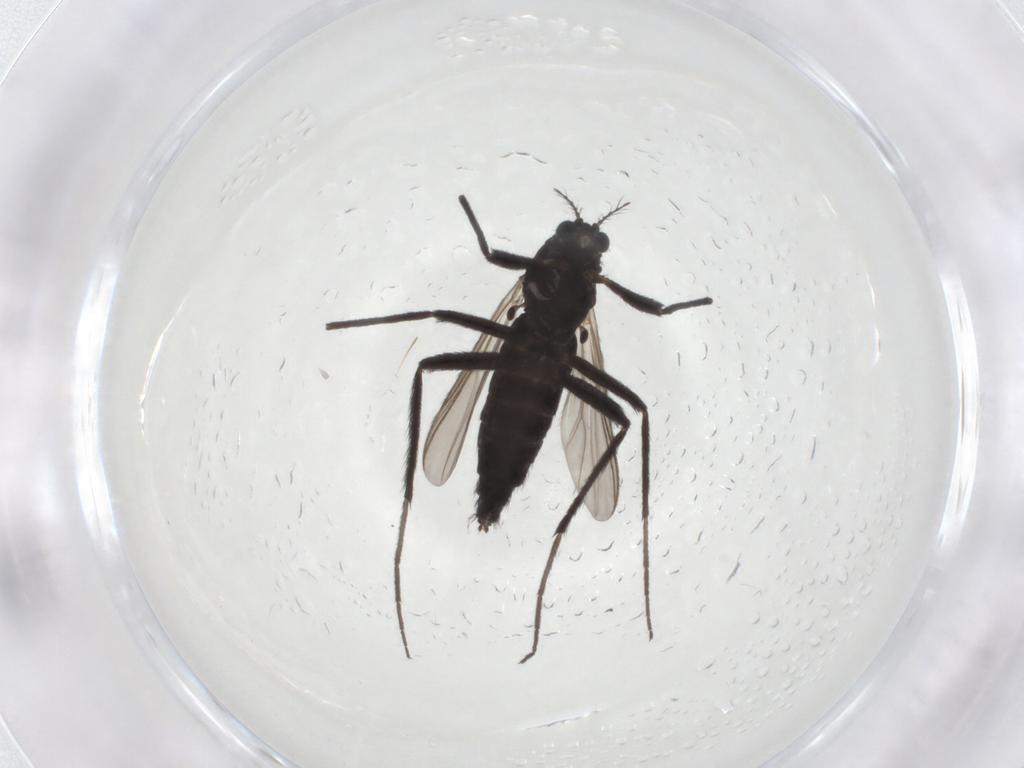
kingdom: Animalia
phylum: Arthropoda
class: Insecta
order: Diptera
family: Chironomidae
